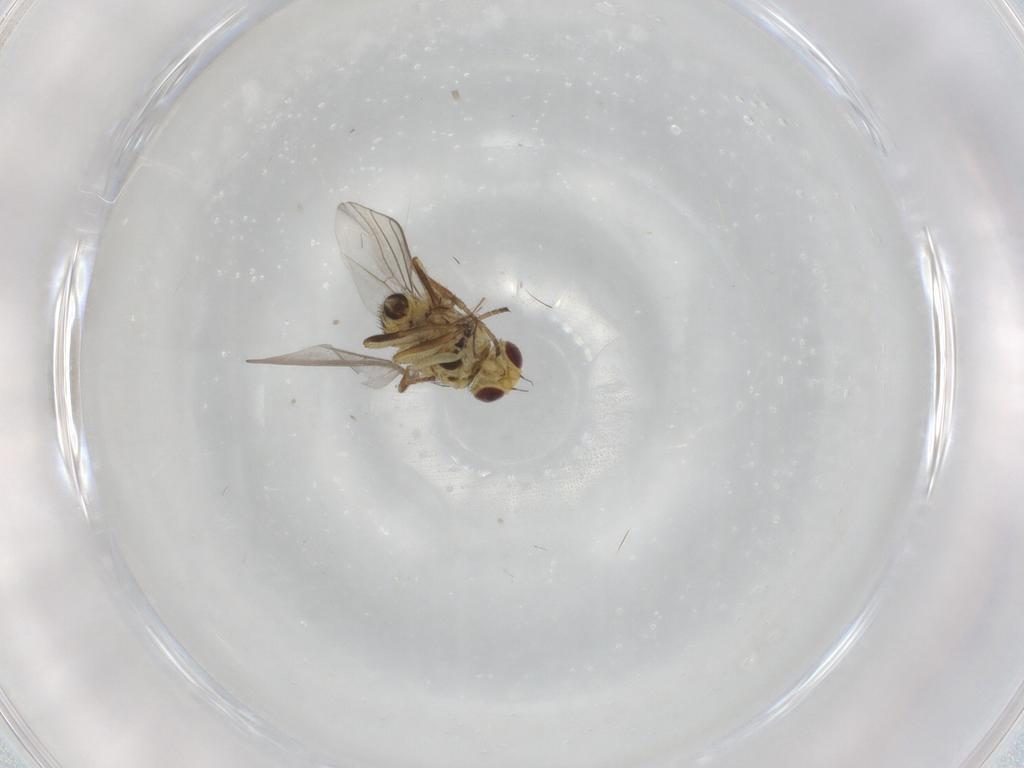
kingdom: Animalia
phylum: Arthropoda
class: Insecta
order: Diptera
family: Agromyzidae
